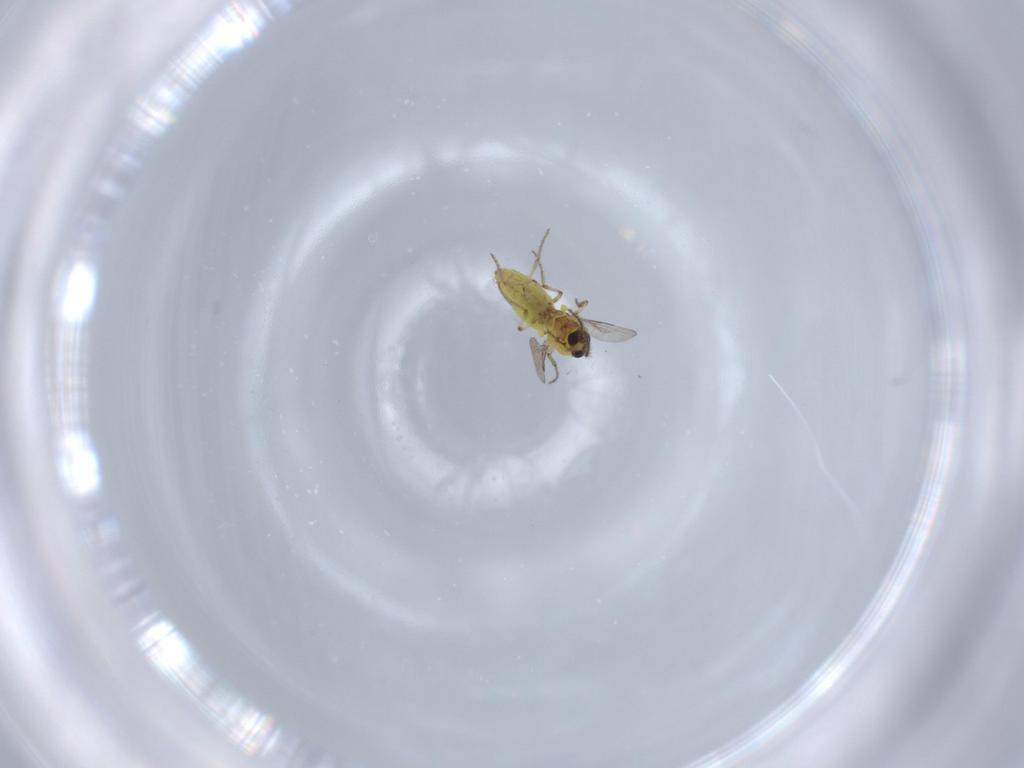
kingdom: Animalia
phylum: Arthropoda
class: Insecta
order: Diptera
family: Ceratopogonidae
